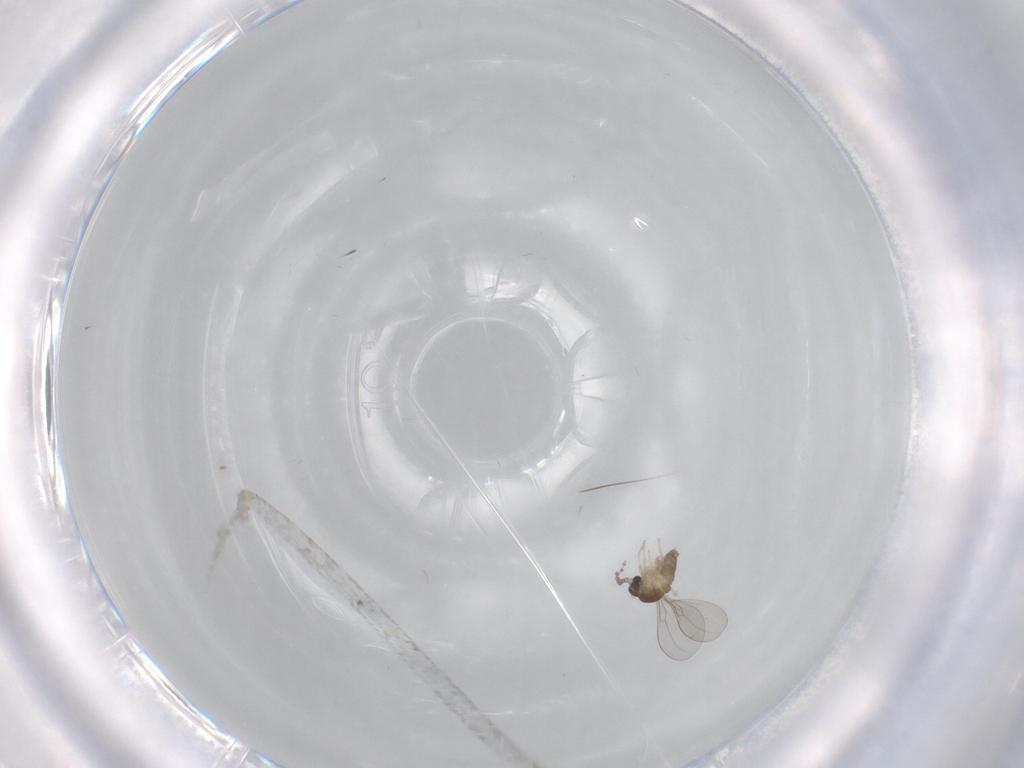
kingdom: Animalia
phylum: Arthropoda
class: Insecta
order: Diptera
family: Cecidomyiidae
